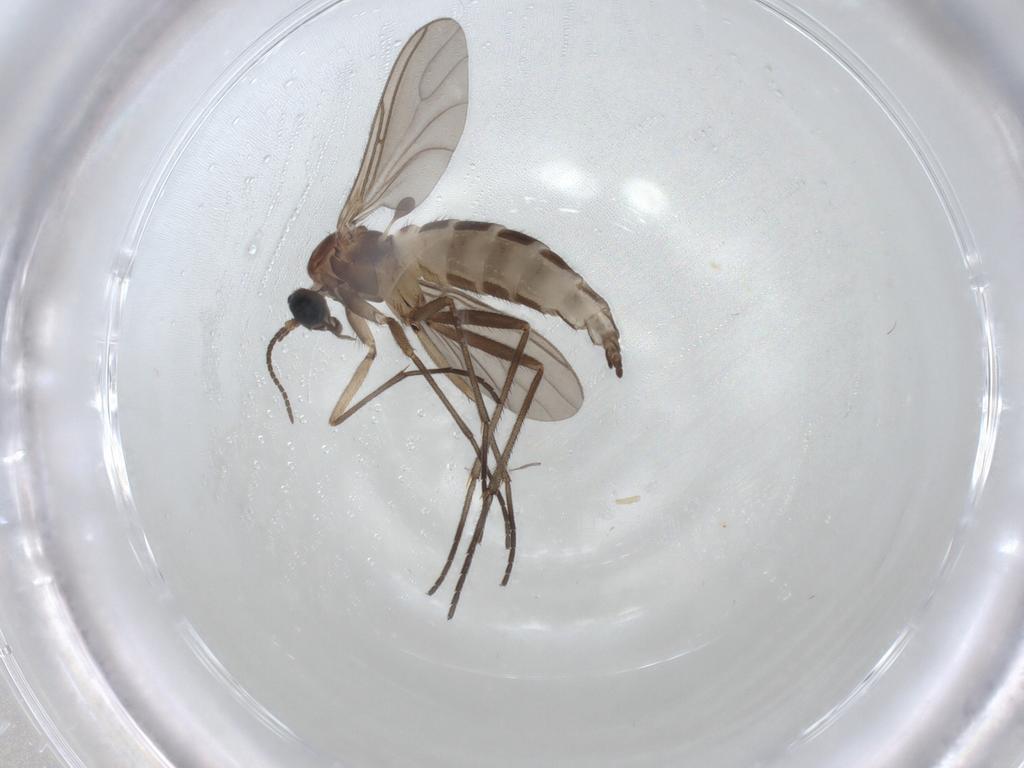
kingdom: Animalia
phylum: Arthropoda
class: Insecta
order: Diptera
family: Sciaridae
